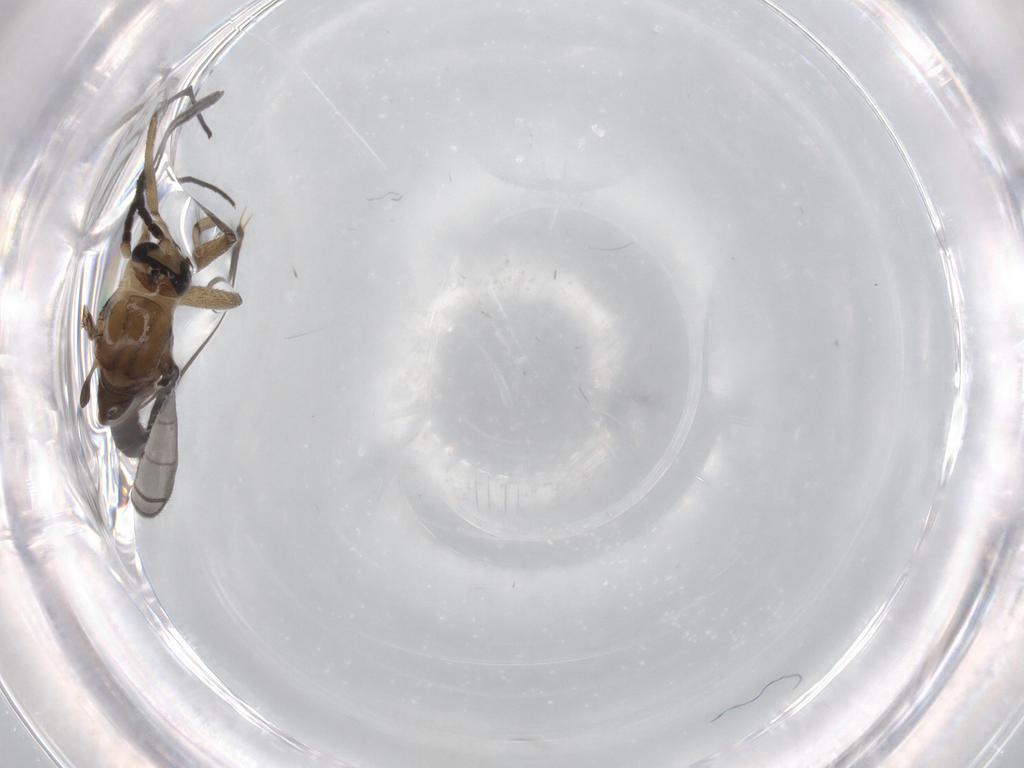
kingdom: Animalia
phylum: Arthropoda
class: Insecta
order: Diptera
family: Sciaridae
